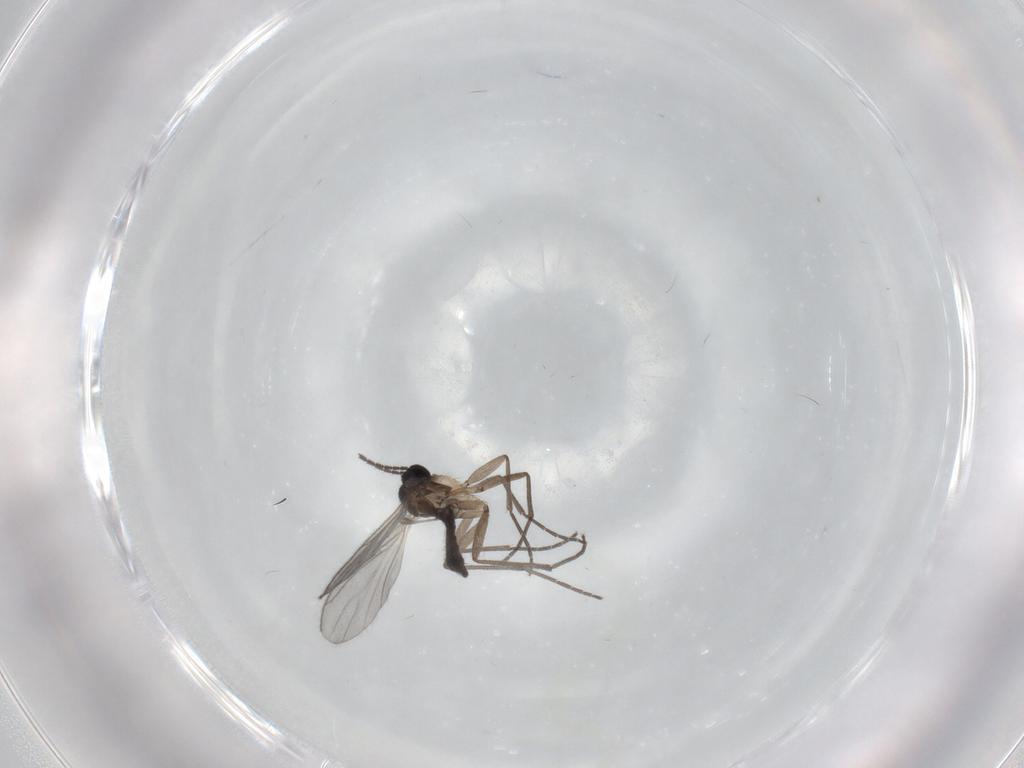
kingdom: Animalia
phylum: Arthropoda
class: Insecta
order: Diptera
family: Sciaridae
